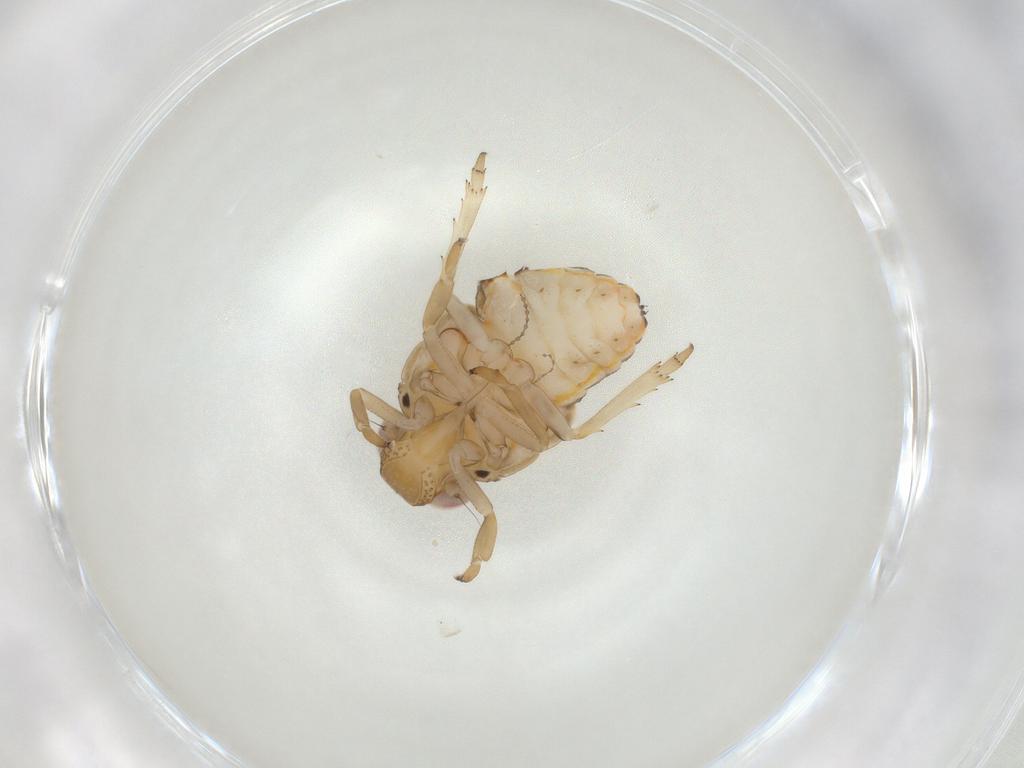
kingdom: Animalia
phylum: Arthropoda
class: Insecta
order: Hemiptera
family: Issidae
